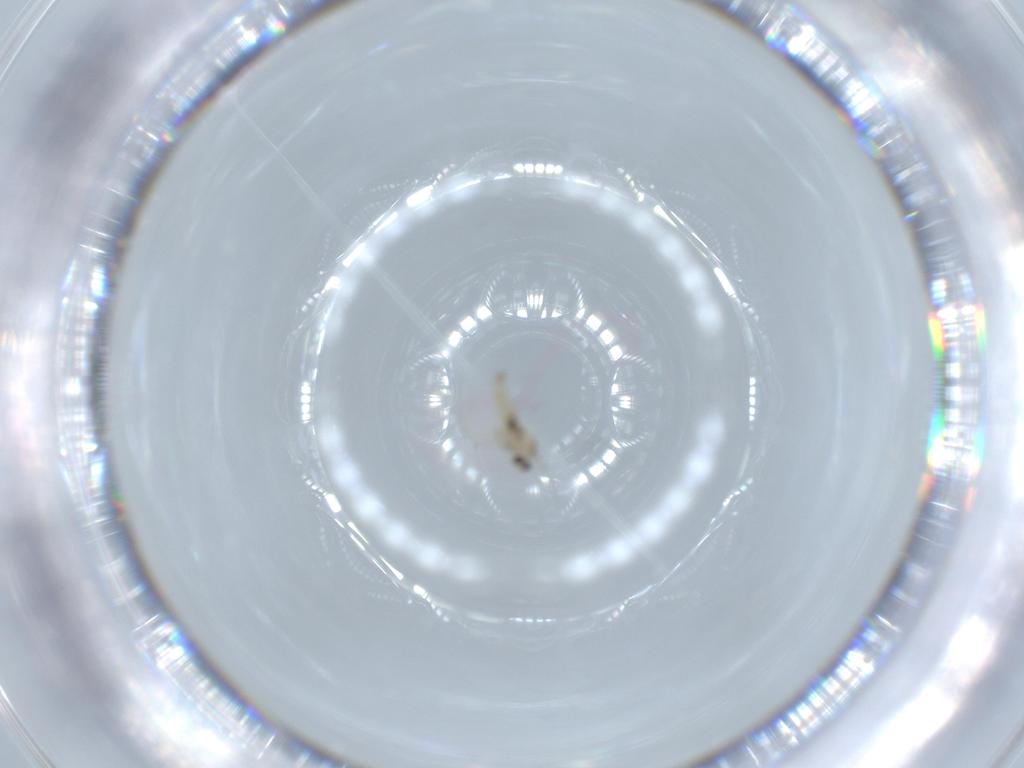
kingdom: Animalia
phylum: Arthropoda
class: Insecta
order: Diptera
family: Cecidomyiidae
